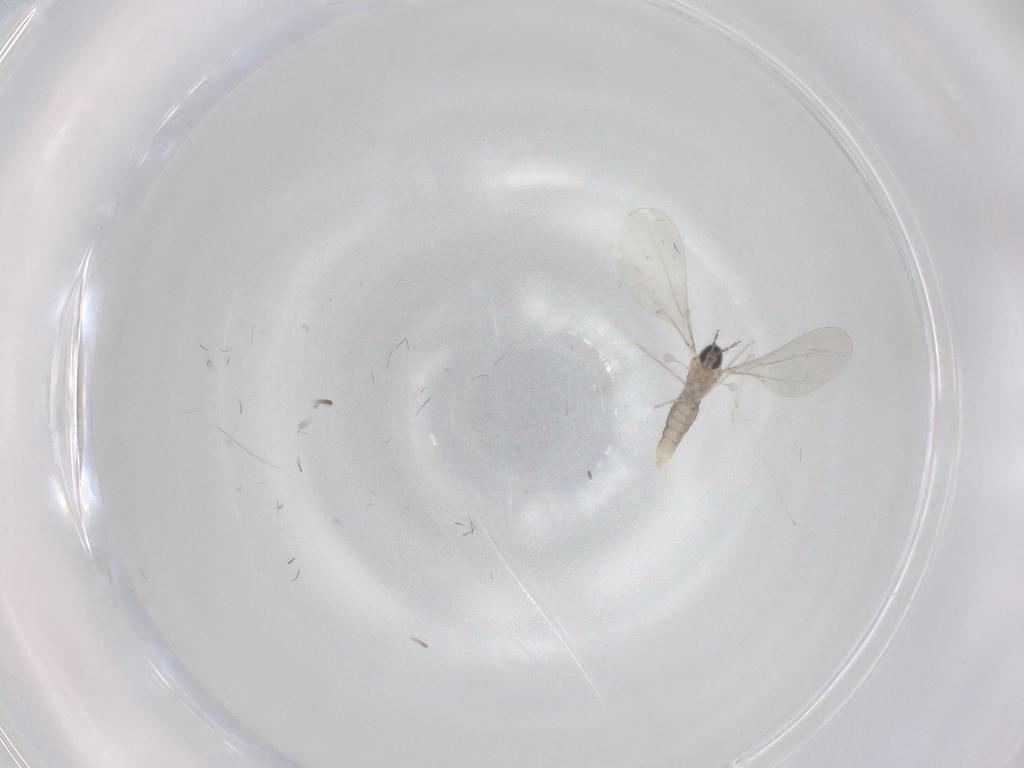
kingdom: Animalia
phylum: Arthropoda
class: Insecta
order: Diptera
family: Cecidomyiidae
